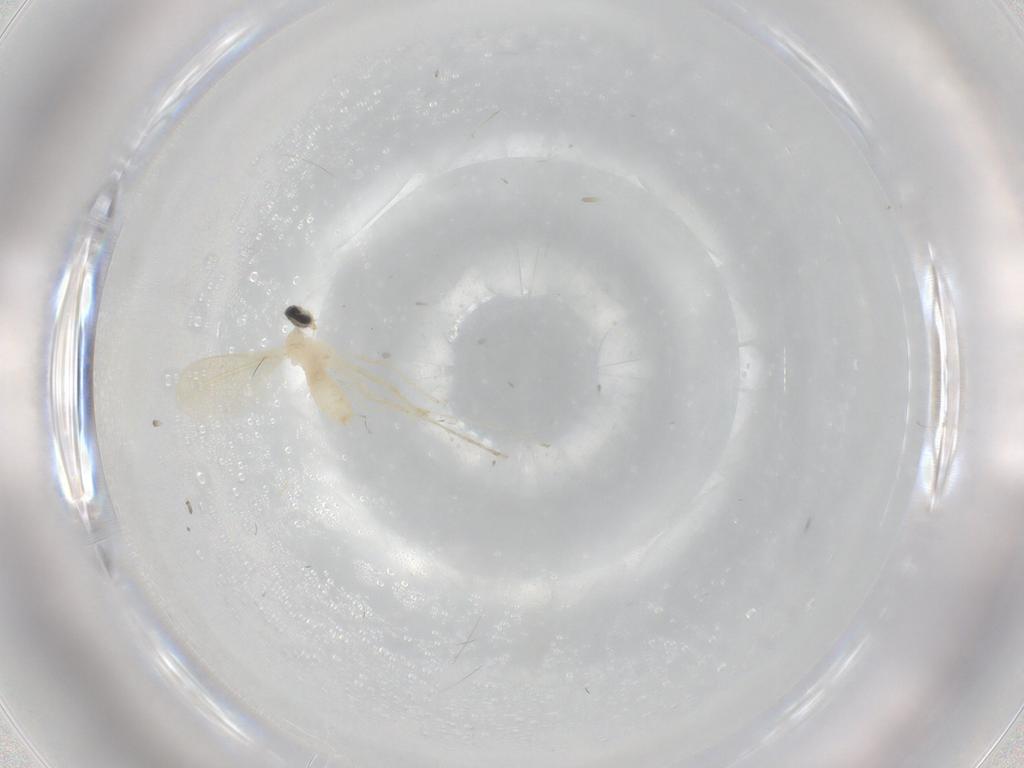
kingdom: Animalia
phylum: Arthropoda
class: Insecta
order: Diptera
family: Cecidomyiidae
